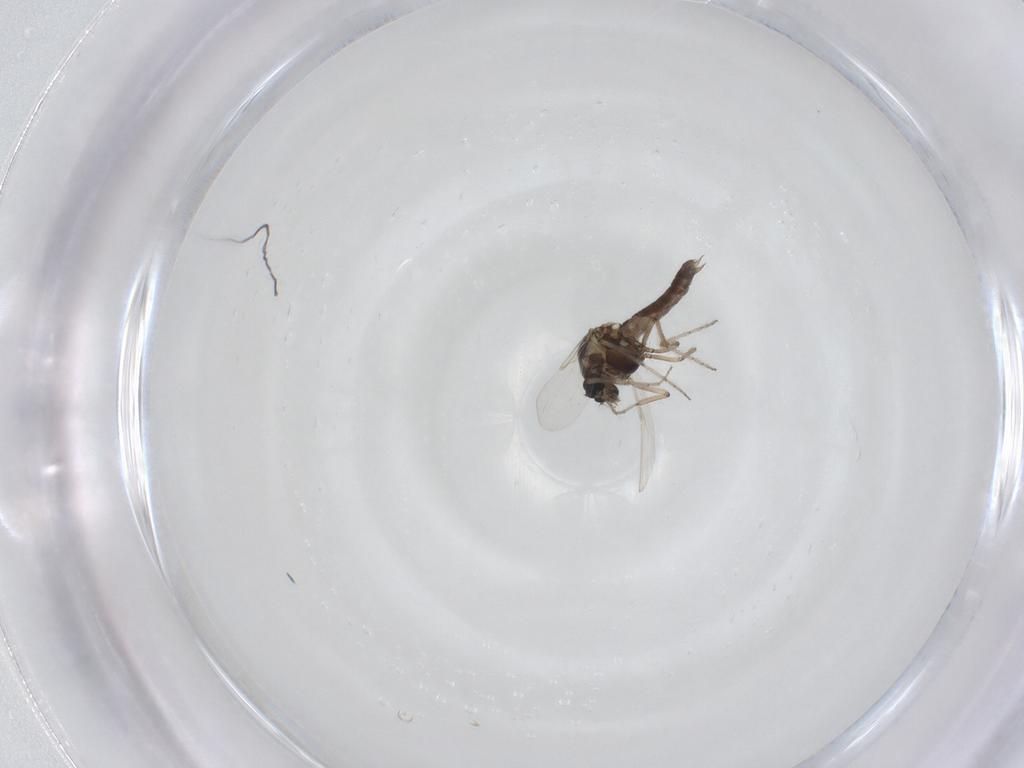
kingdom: Animalia
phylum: Arthropoda
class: Insecta
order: Diptera
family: Ceratopogonidae
